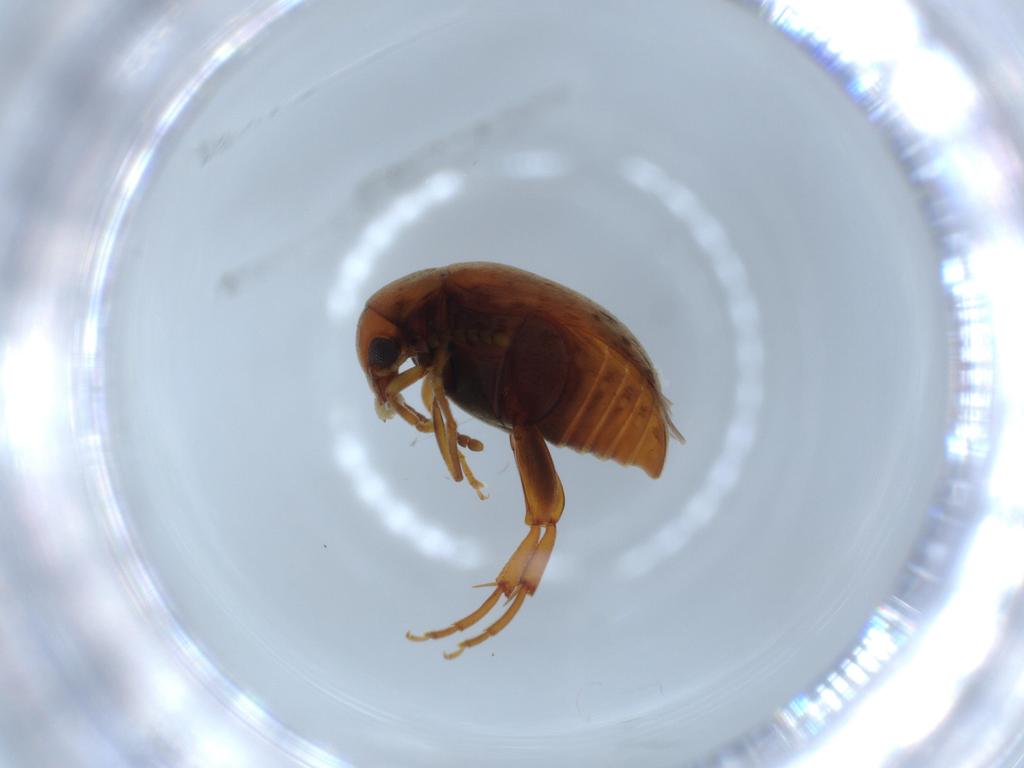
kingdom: Animalia
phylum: Arthropoda
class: Insecta
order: Coleoptera
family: Chrysomelidae
